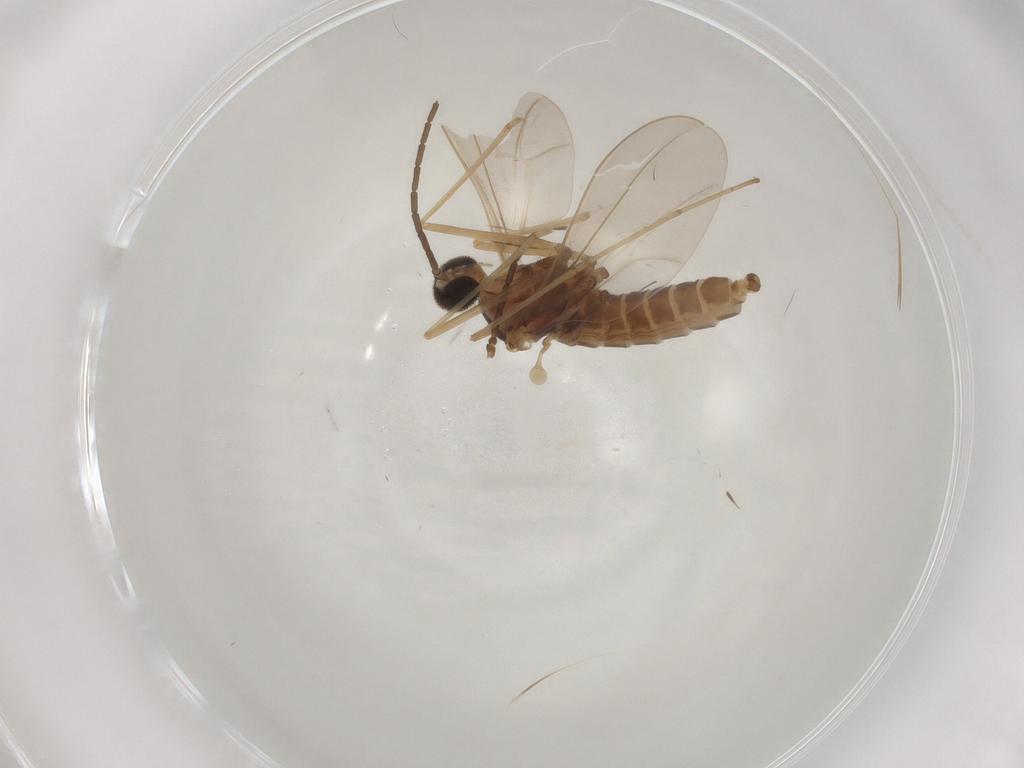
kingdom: Animalia
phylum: Arthropoda
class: Insecta
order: Diptera
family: Cecidomyiidae
